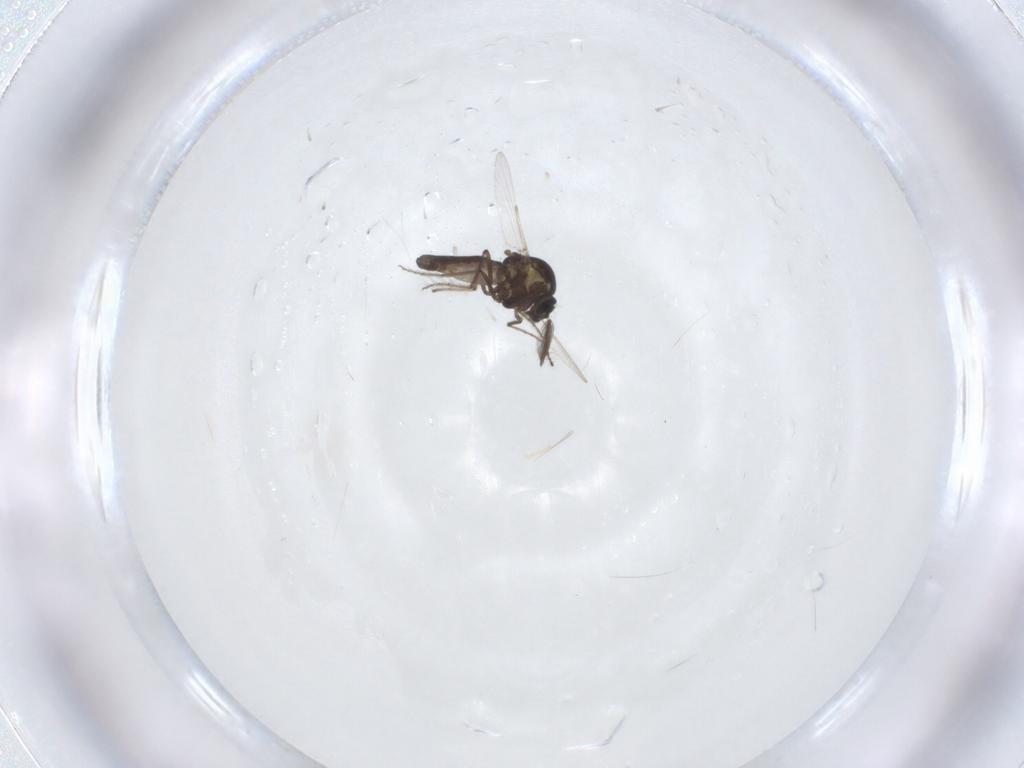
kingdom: Animalia
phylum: Arthropoda
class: Insecta
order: Diptera
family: Ceratopogonidae
